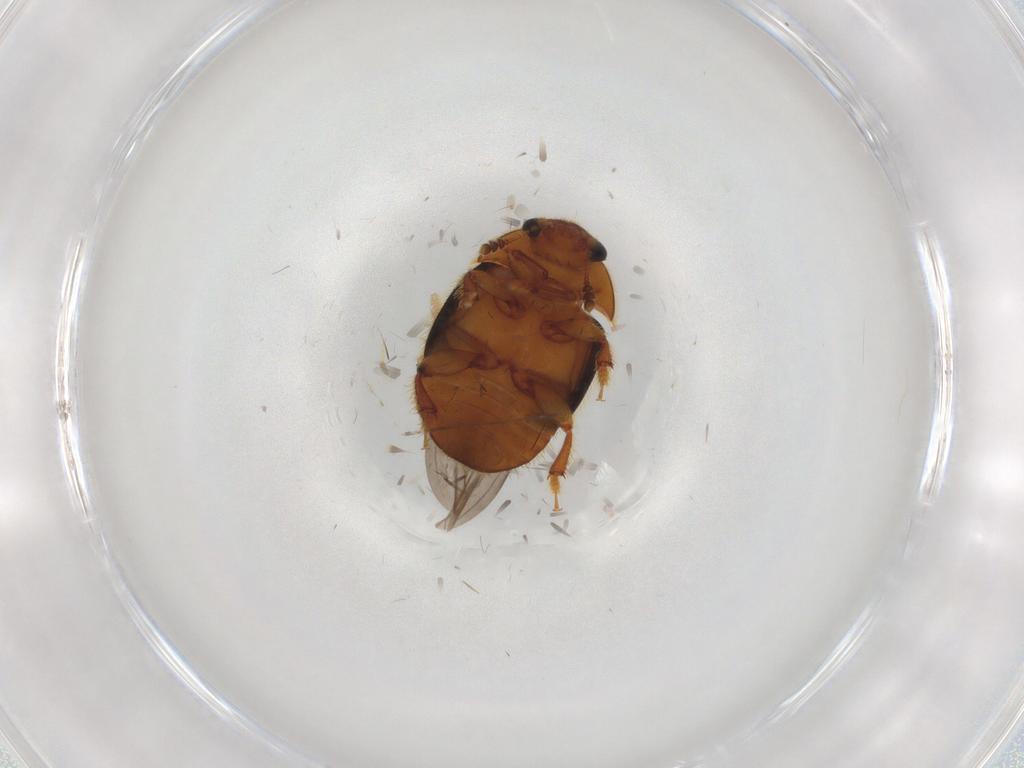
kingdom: Animalia
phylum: Arthropoda
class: Insecta
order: Coleoptera
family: Nitidulidae
